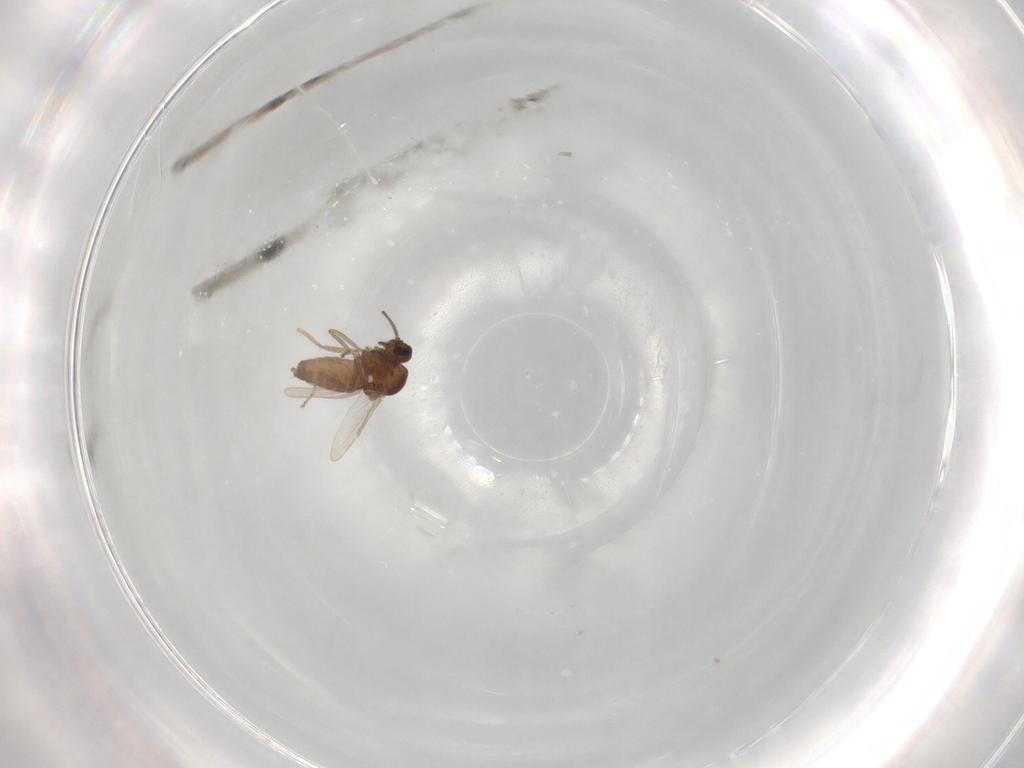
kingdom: Animalia
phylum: Arthropoda
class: Insecta
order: Diptera
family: Ceratopogonidae
